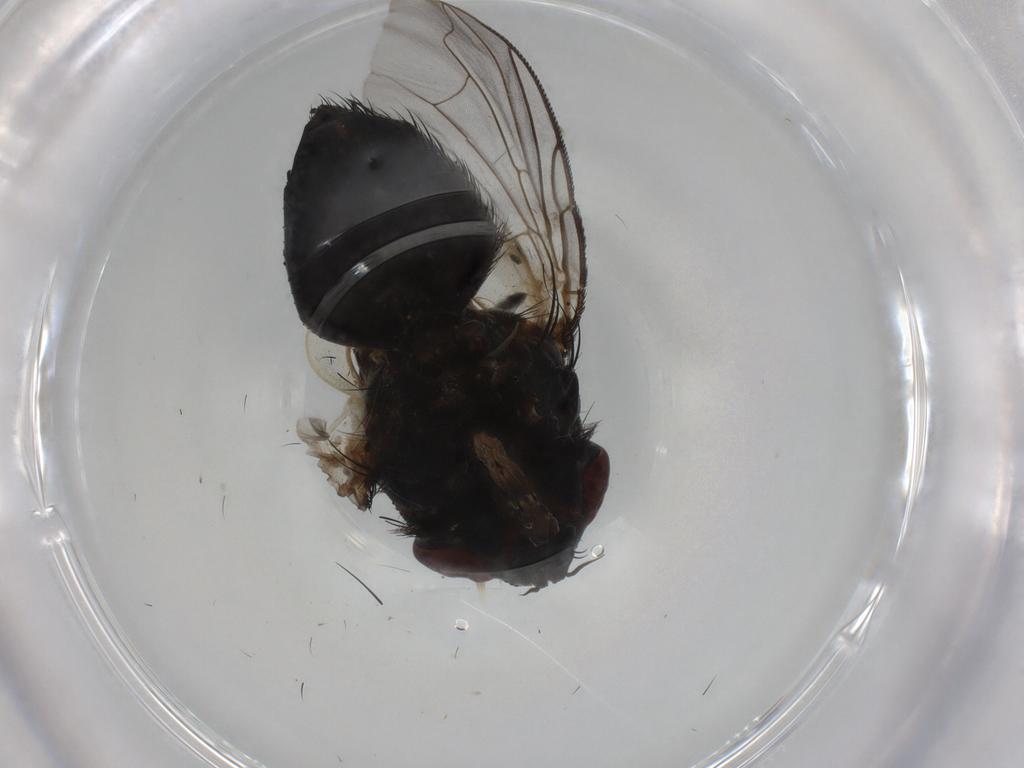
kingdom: Animalia
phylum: Arthropoda
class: Insecta
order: Diptera
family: Tachinidae
